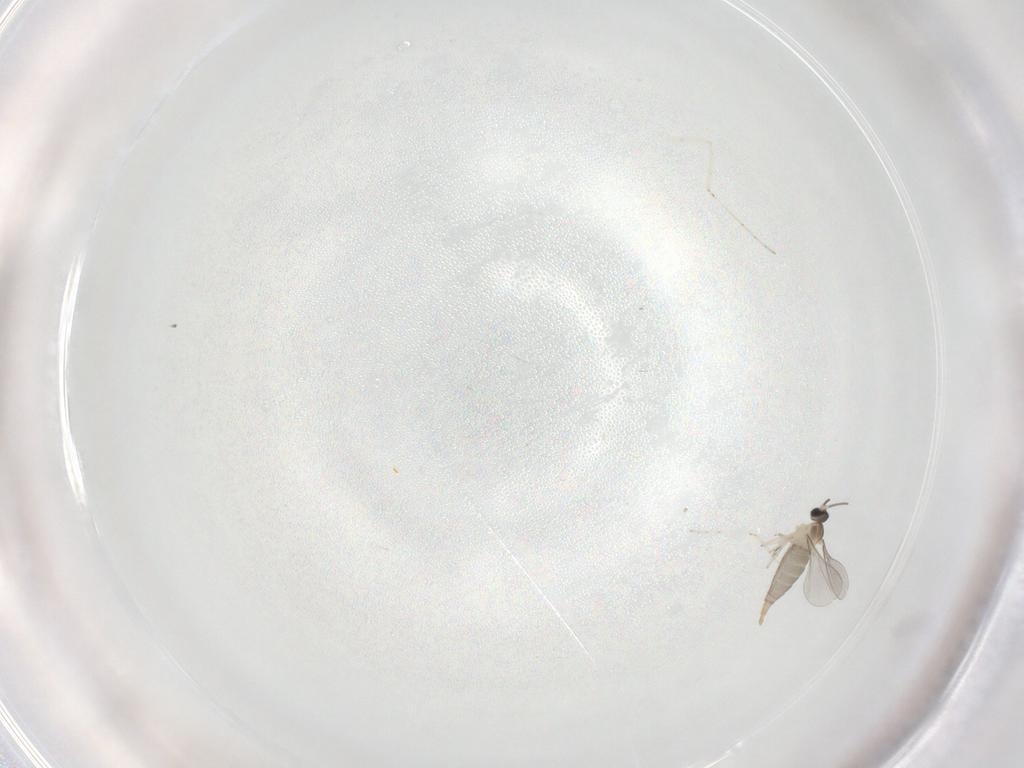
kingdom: Animalia
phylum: Arthropoda
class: Insecta
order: Diptera
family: Cecidomyiidae
